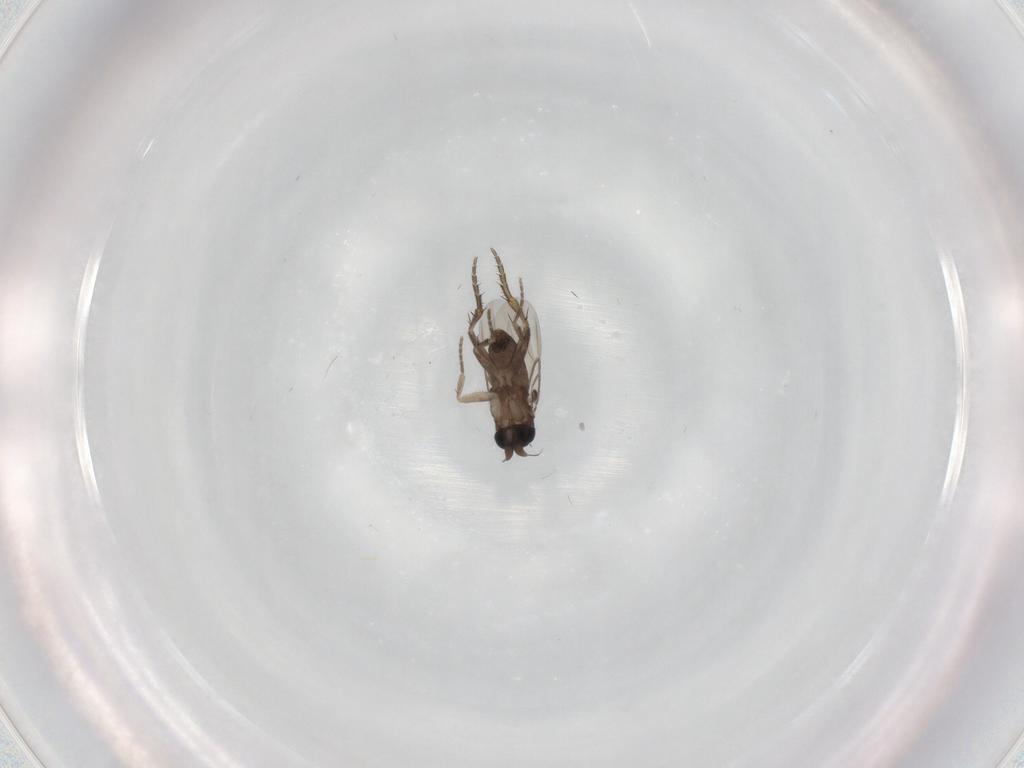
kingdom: Animalia
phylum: Arthropoda
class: Insecta
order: Diptera
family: Phoridae
